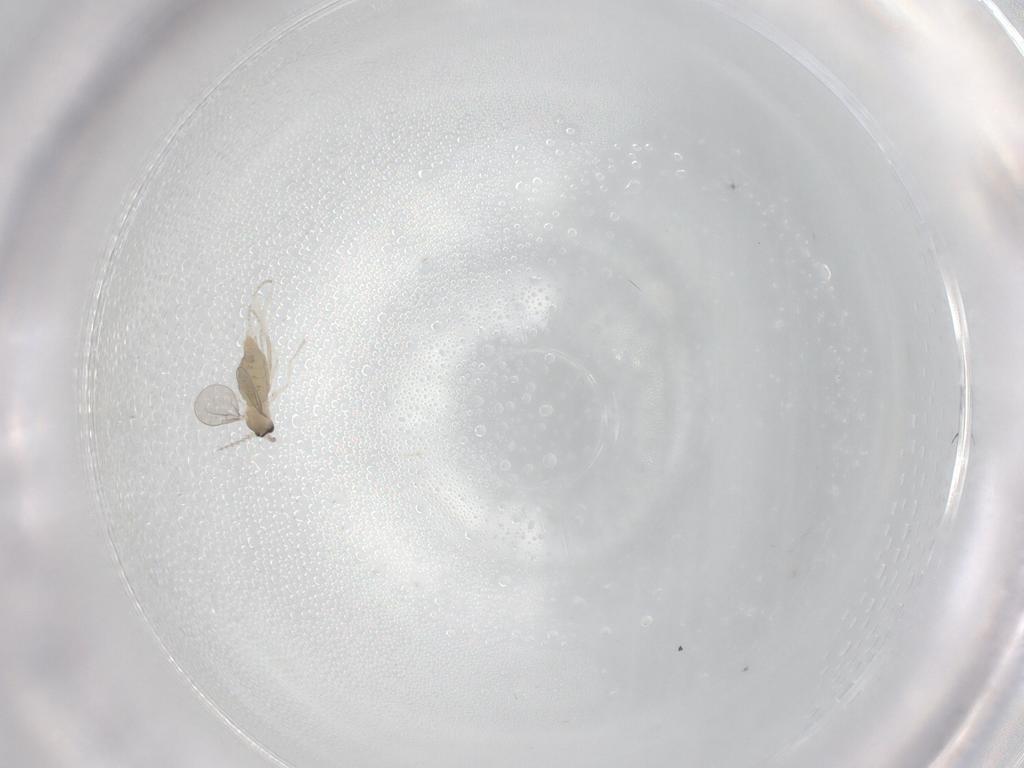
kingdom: Animalia
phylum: Arthropoda
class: Insecta
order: Diptera
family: Cecidomyiidae
